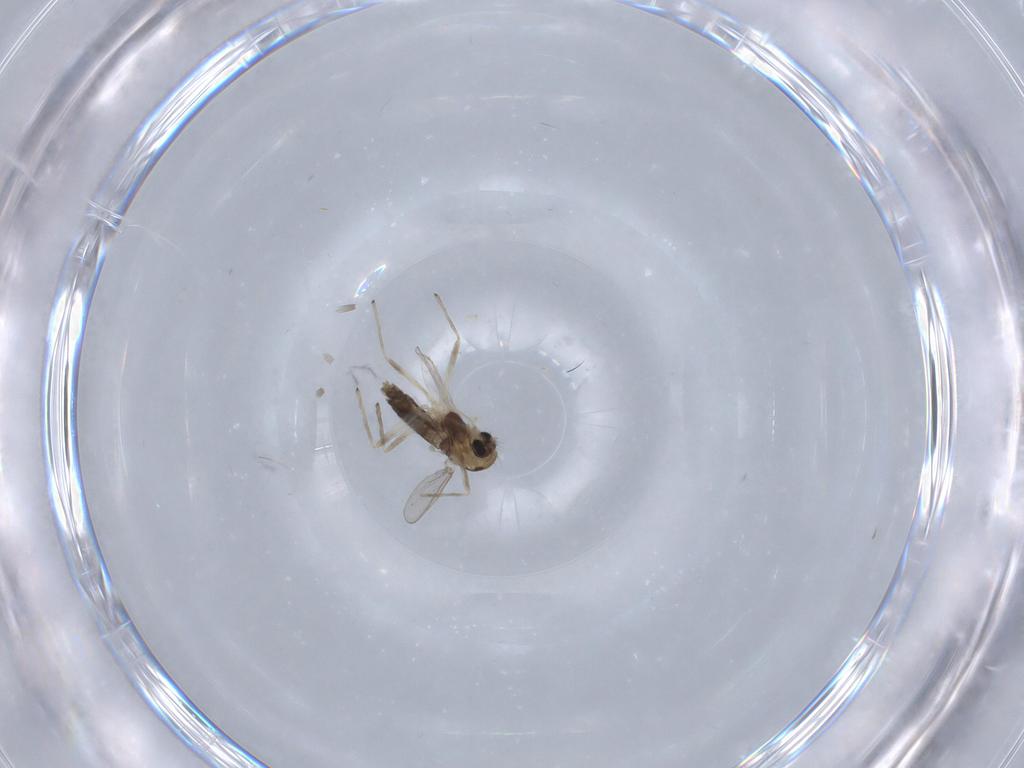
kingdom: Animalia
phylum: Arthropoda
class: Insecta
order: Diptera
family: Chironomidae
